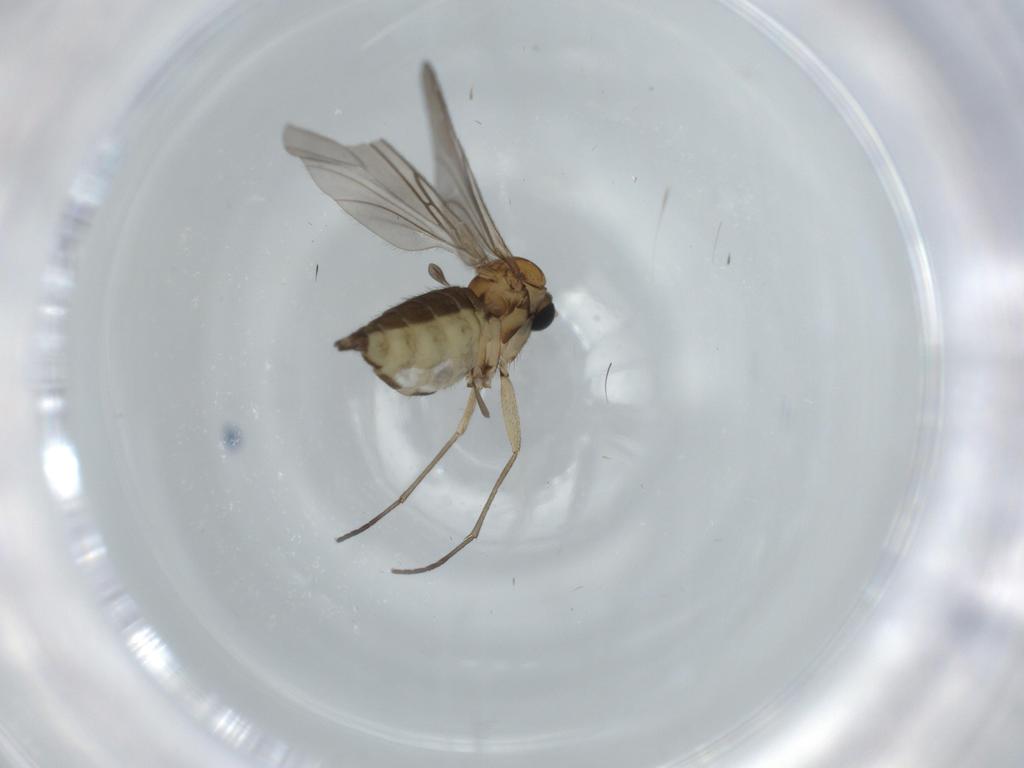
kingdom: Animalia
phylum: Arthropoda
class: Insecta
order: Diptera
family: Sciaridae
